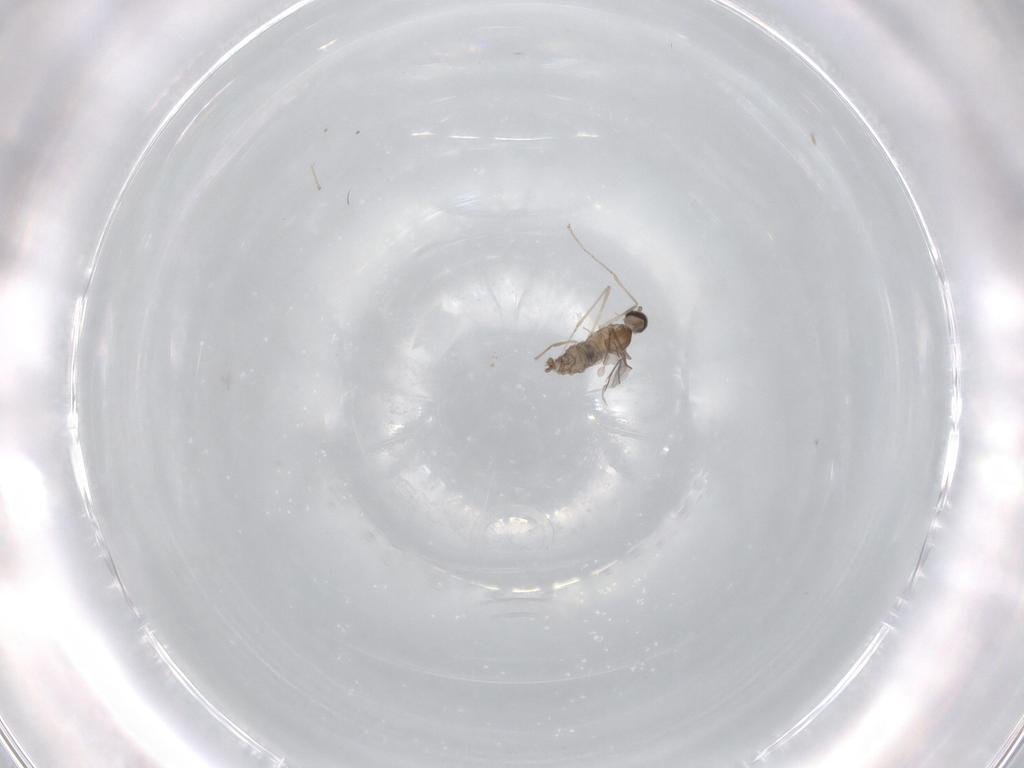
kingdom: Animalia
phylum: Arthropoda
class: Insecta
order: Diptera
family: Cecidomyiidae
